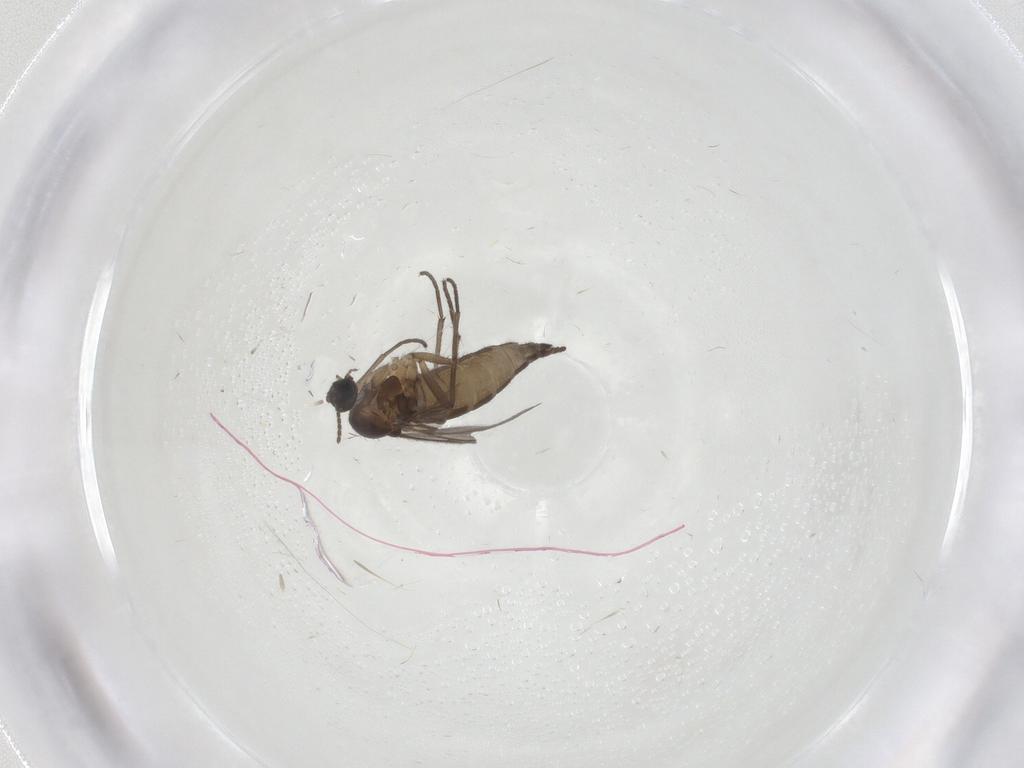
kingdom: Animalia
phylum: Arthropoda
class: Insecta
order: Diptera
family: Sciaridae
